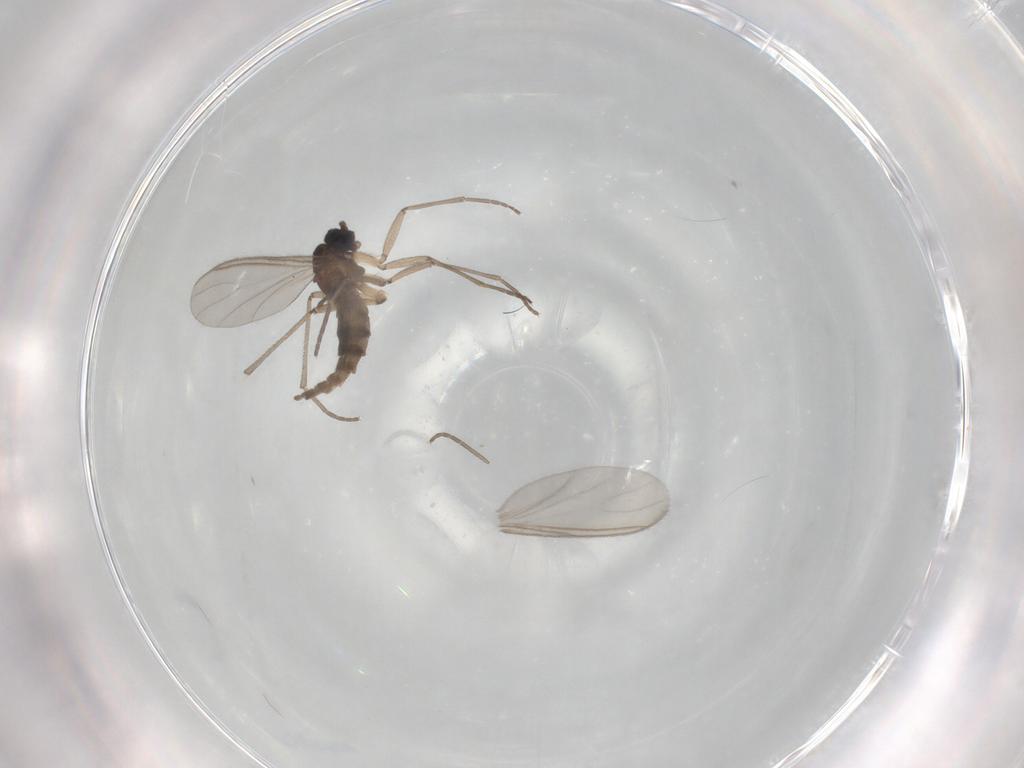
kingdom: Animalia
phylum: Arthropoda
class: Insecta
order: Diptera
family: Sciaridae
